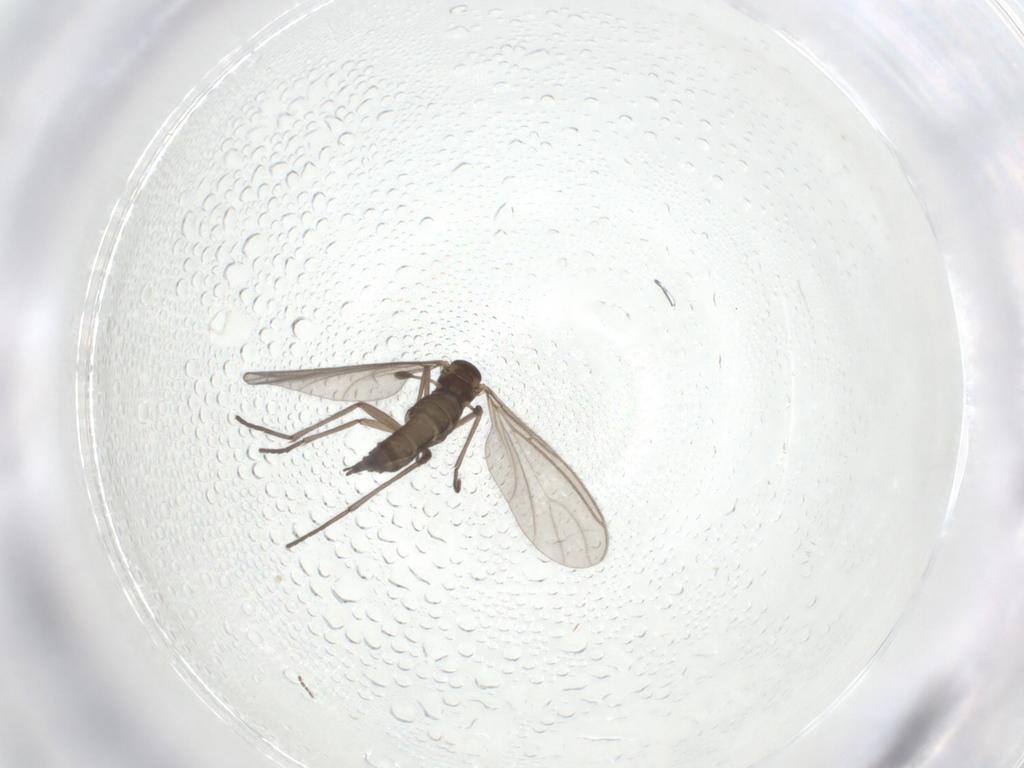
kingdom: Animalia
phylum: Arthropoda
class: Insecta
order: Diptera
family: Sciaridae
